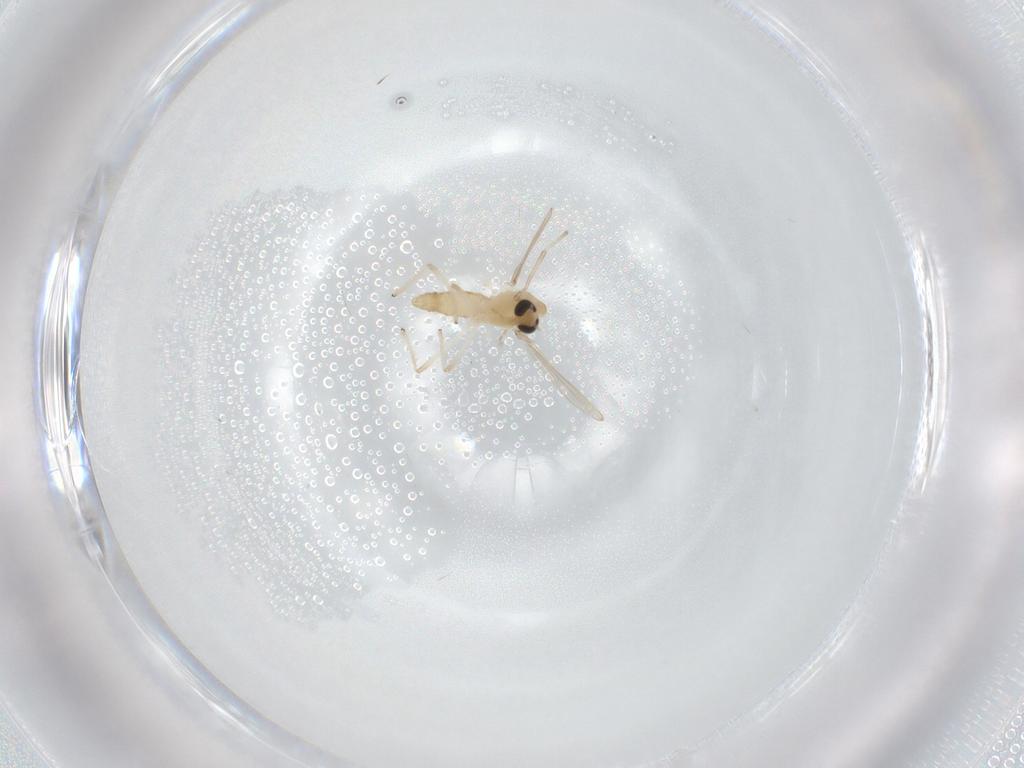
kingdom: Animalia
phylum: Arthropoda
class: Insecta
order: Diptera
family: Chironomidae
